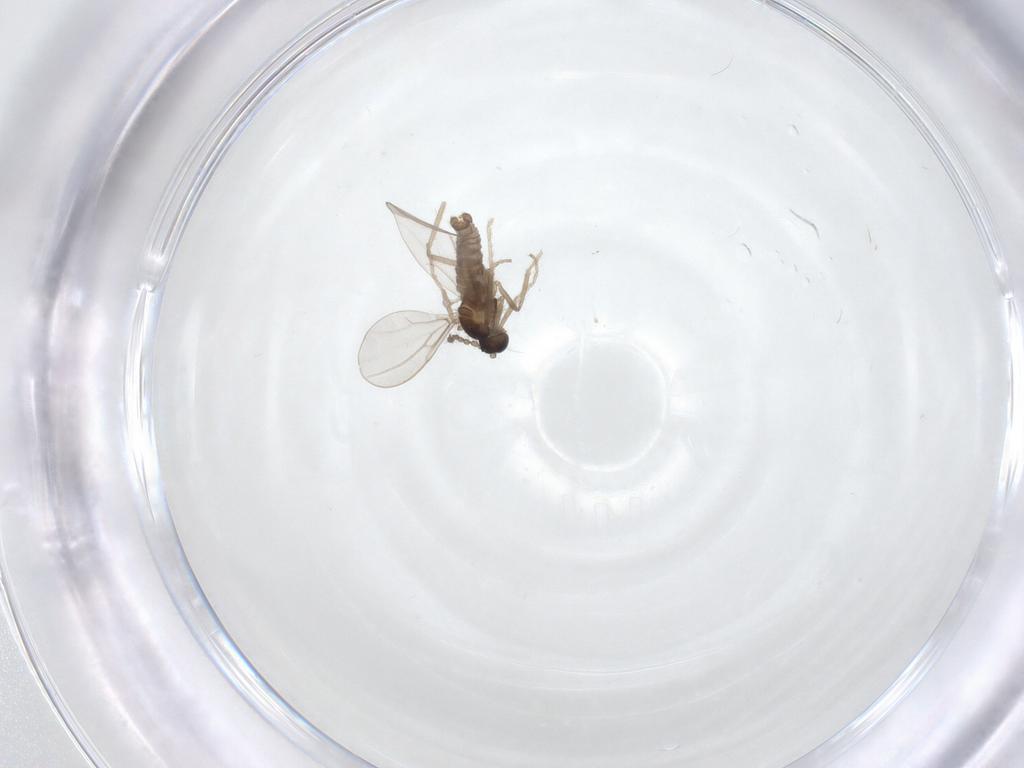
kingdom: Animalia
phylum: Arthropoda
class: Insecta
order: Diptera
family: Cecidomyiidae
